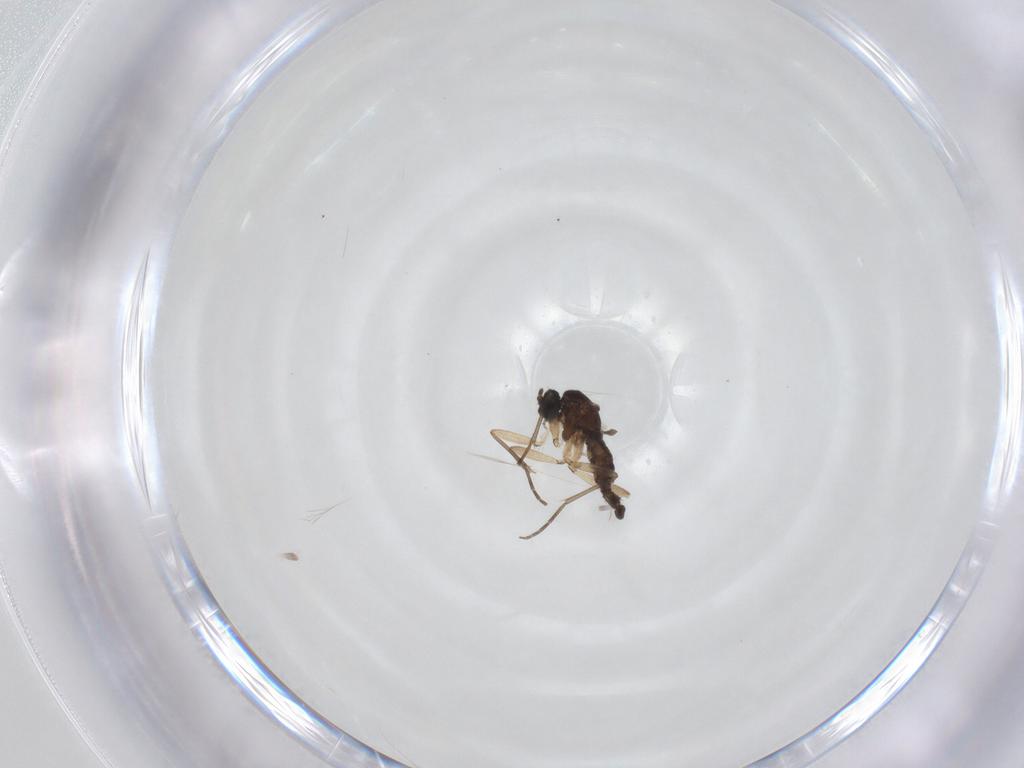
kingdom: Animalia
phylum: Arthropoda
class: Insecta
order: Diptera
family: Sciaridae
